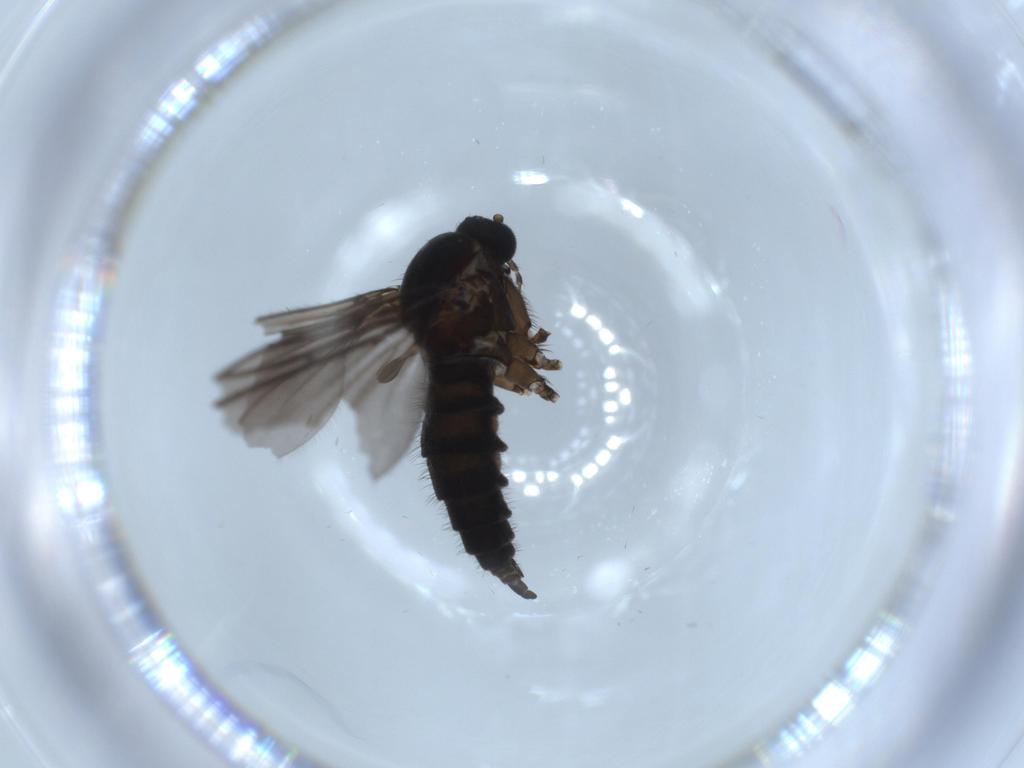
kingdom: Animalia
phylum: Arthropoda
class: Insecta
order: Diptera
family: Sciaridae
